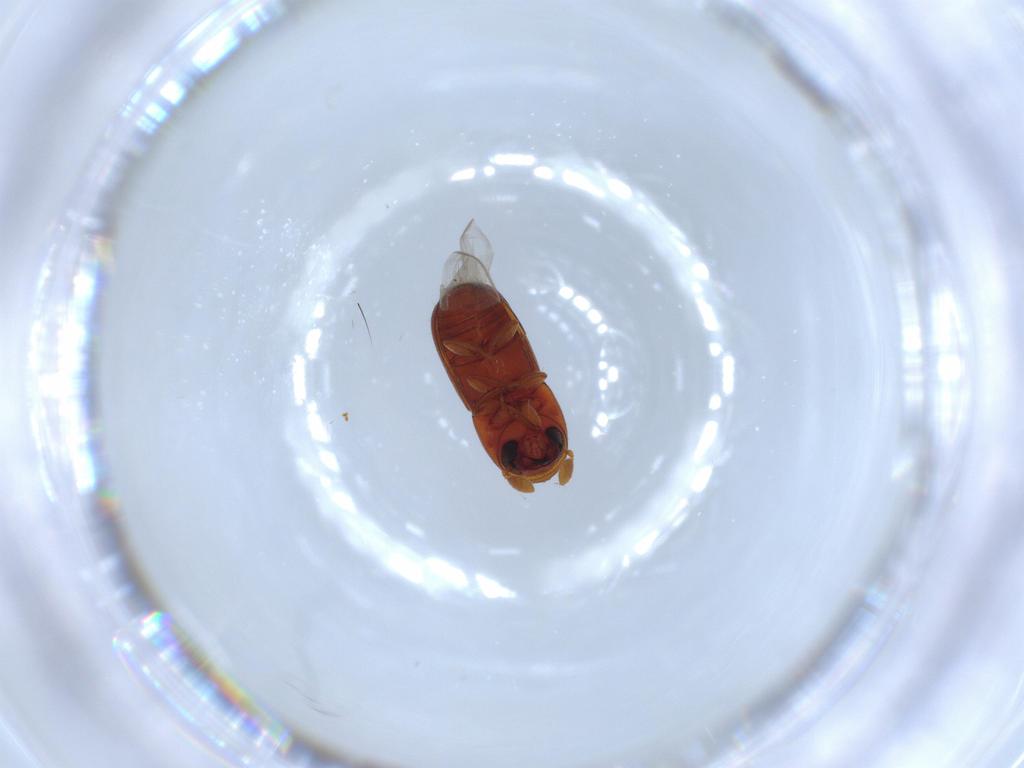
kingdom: Animalia
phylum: Arthropoda
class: Insecta
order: Coleoptera
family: Curculionidae
